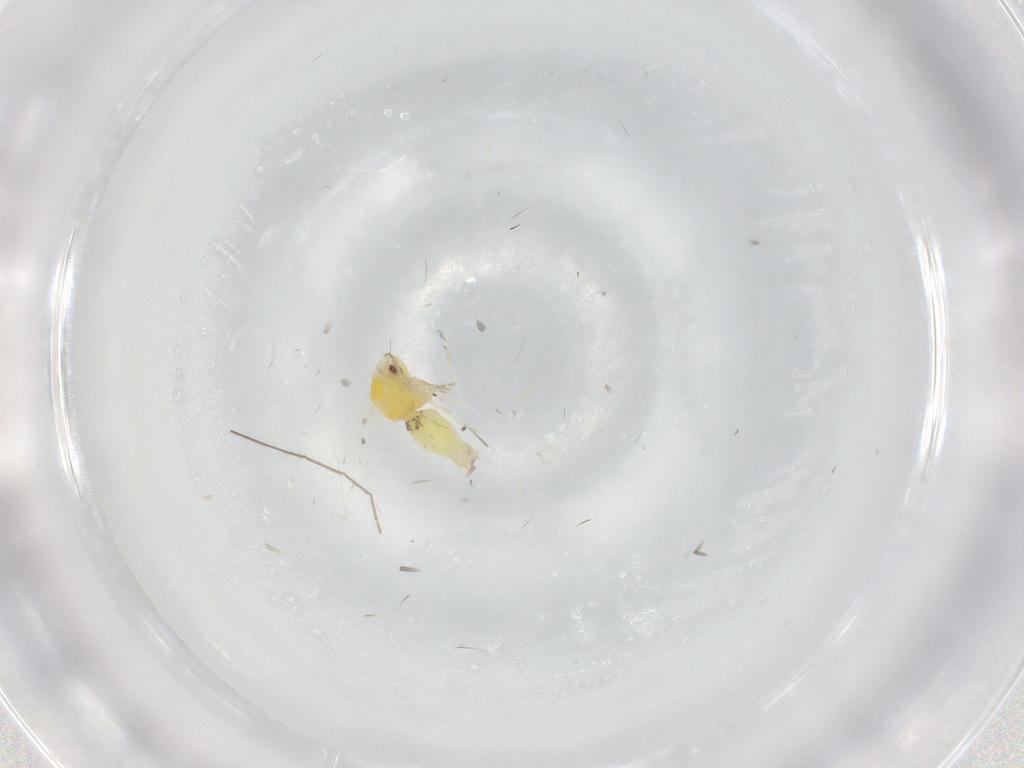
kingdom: Animalia
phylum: Arthropoda
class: Insecta
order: Hemiptera
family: Aleyrodidae
